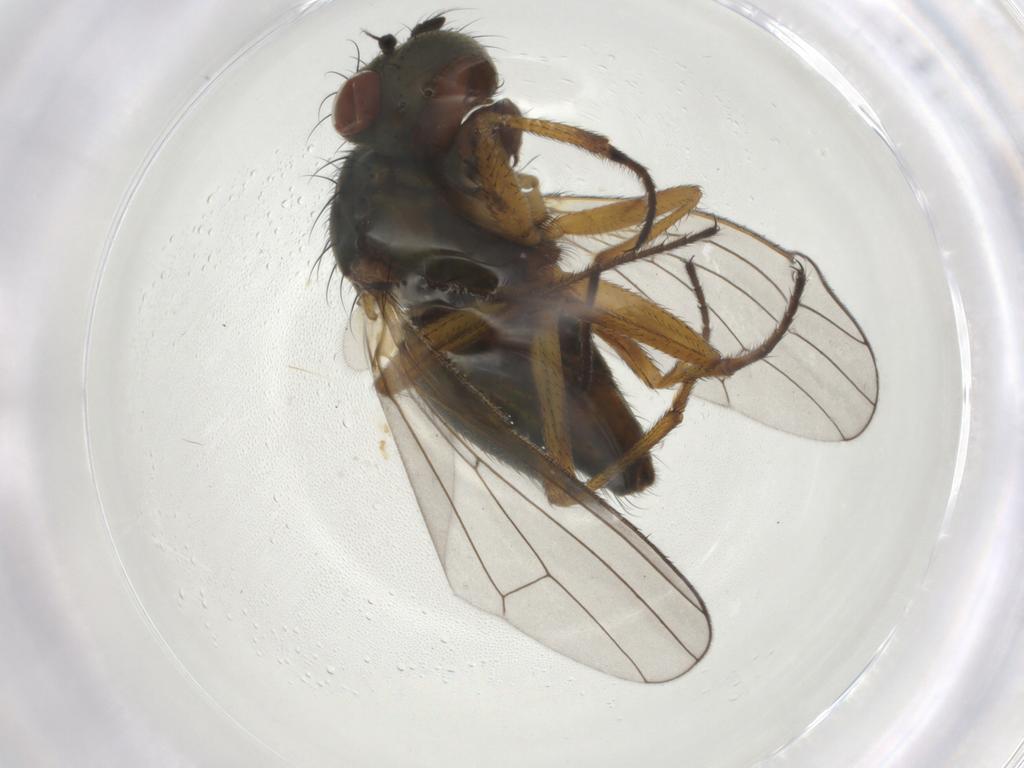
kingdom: Animalia
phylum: Arthropoda
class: Insecta
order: Diptera
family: Ephydridae
